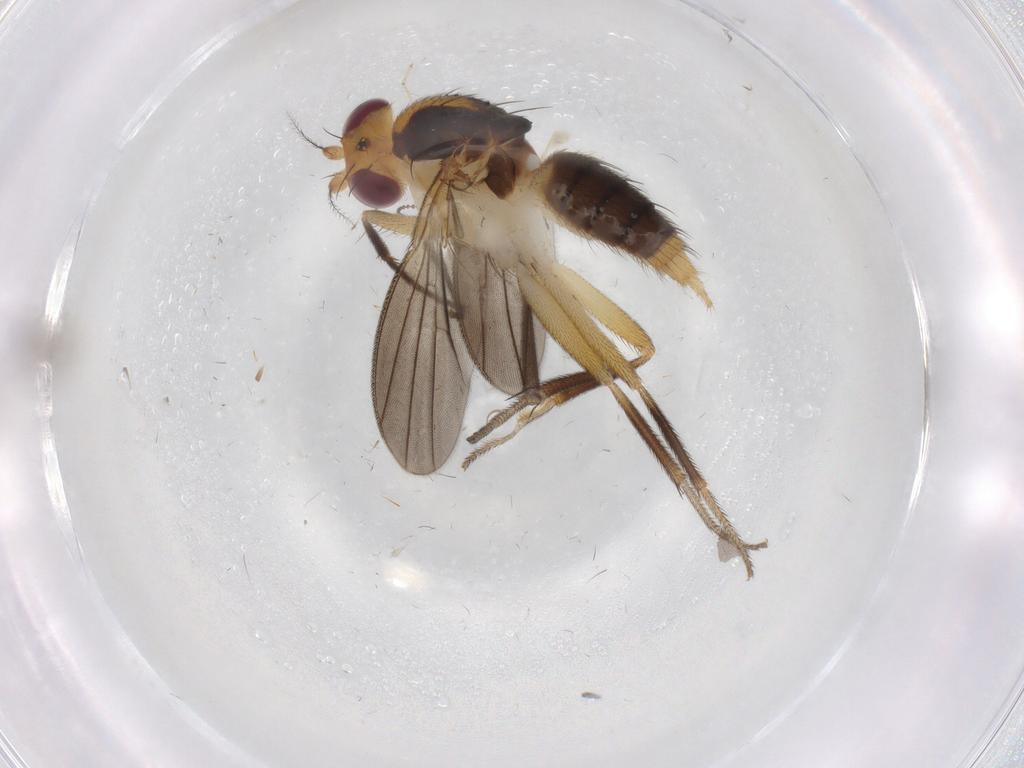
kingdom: Animalia
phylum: Arthropoda
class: Insecta
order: Diptera
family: Clusiidae
